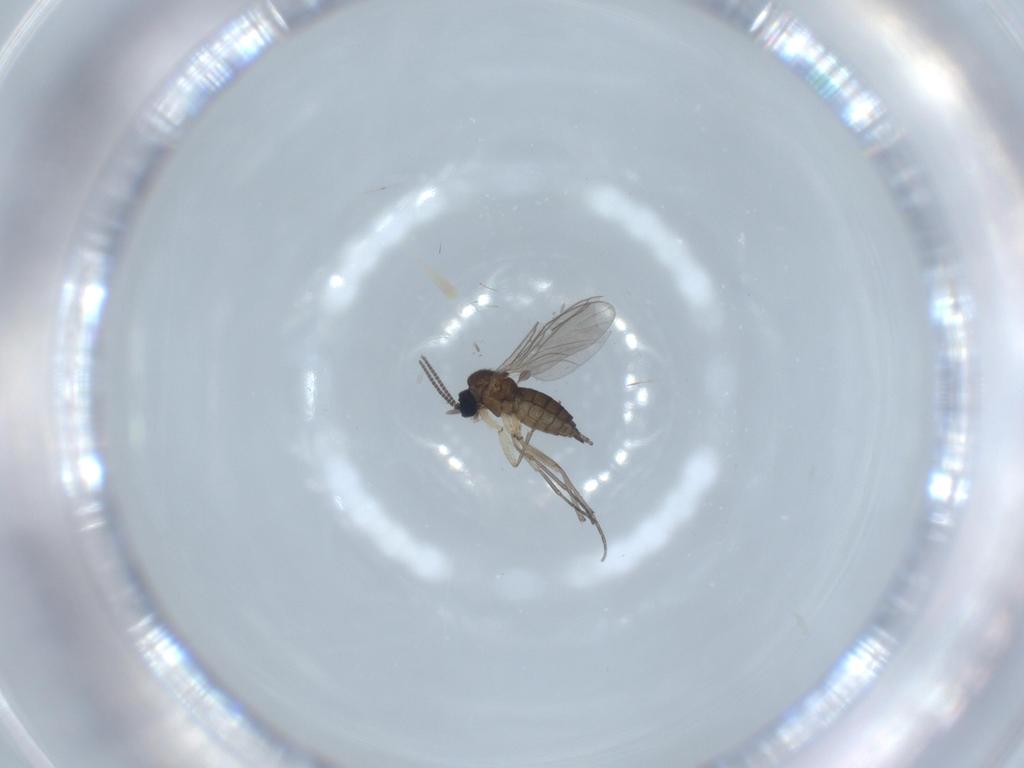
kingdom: Animalia
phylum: Arthropoda
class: Insecta
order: Diptera
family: Sciaridae
